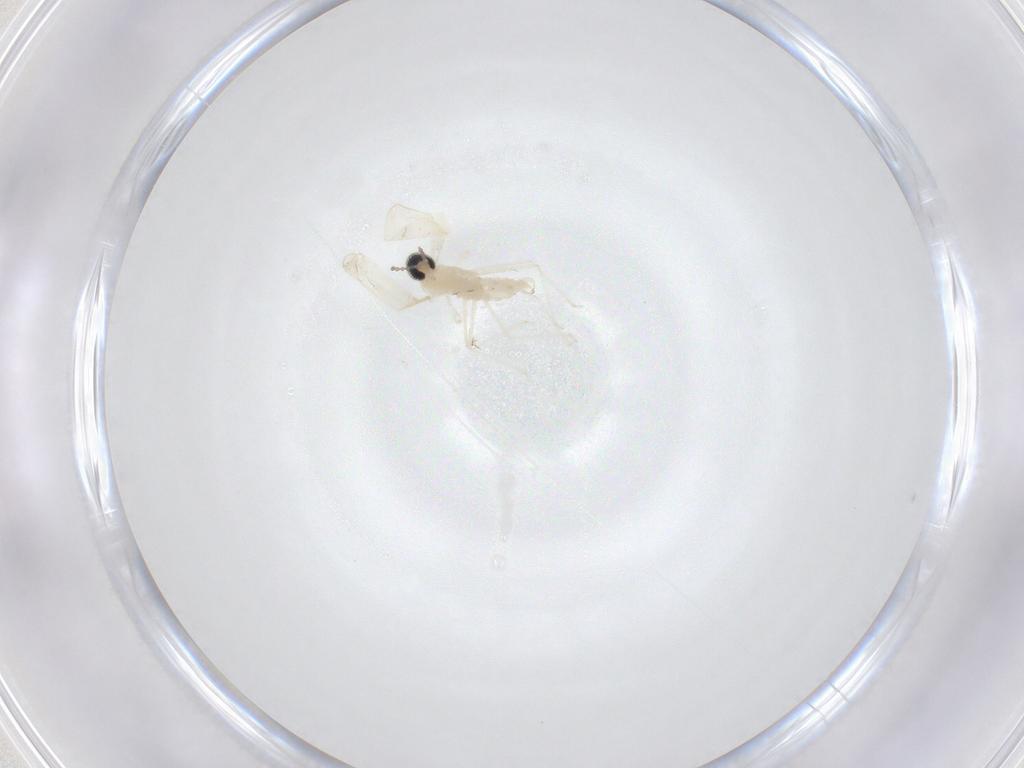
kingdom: Animalia
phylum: Arthropoda
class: Insecta
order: Diptera
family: Cecidomyiidae
